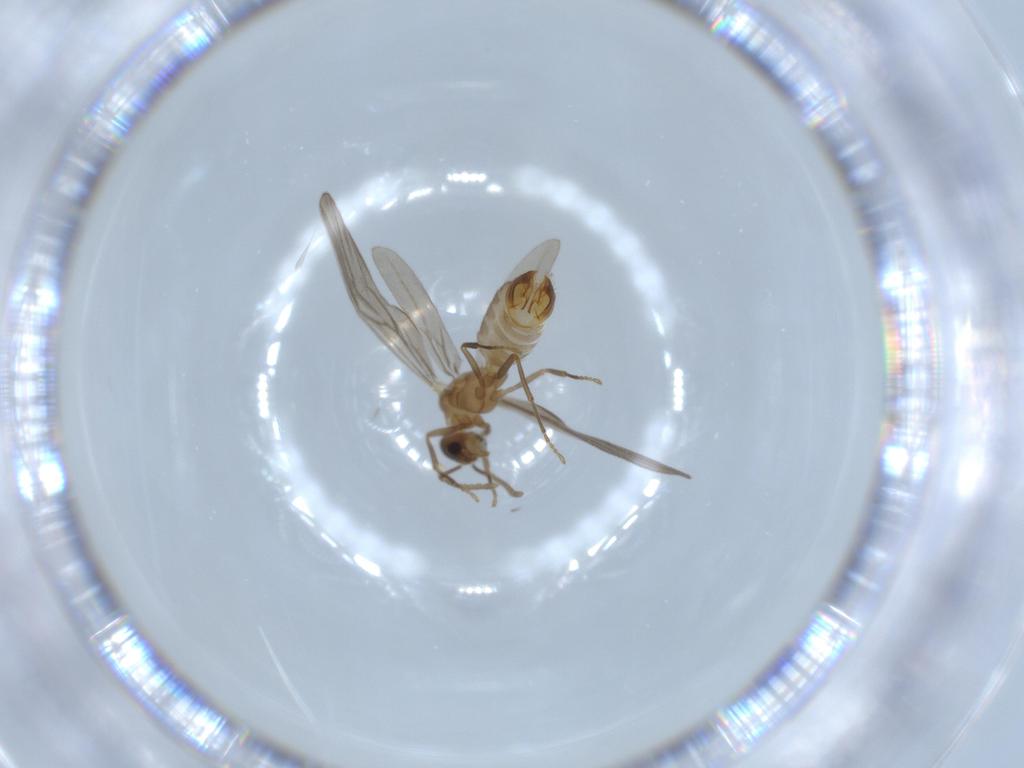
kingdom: Animalia
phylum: Arthropoda
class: Insecta
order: Hymenoptera
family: Formicidae
